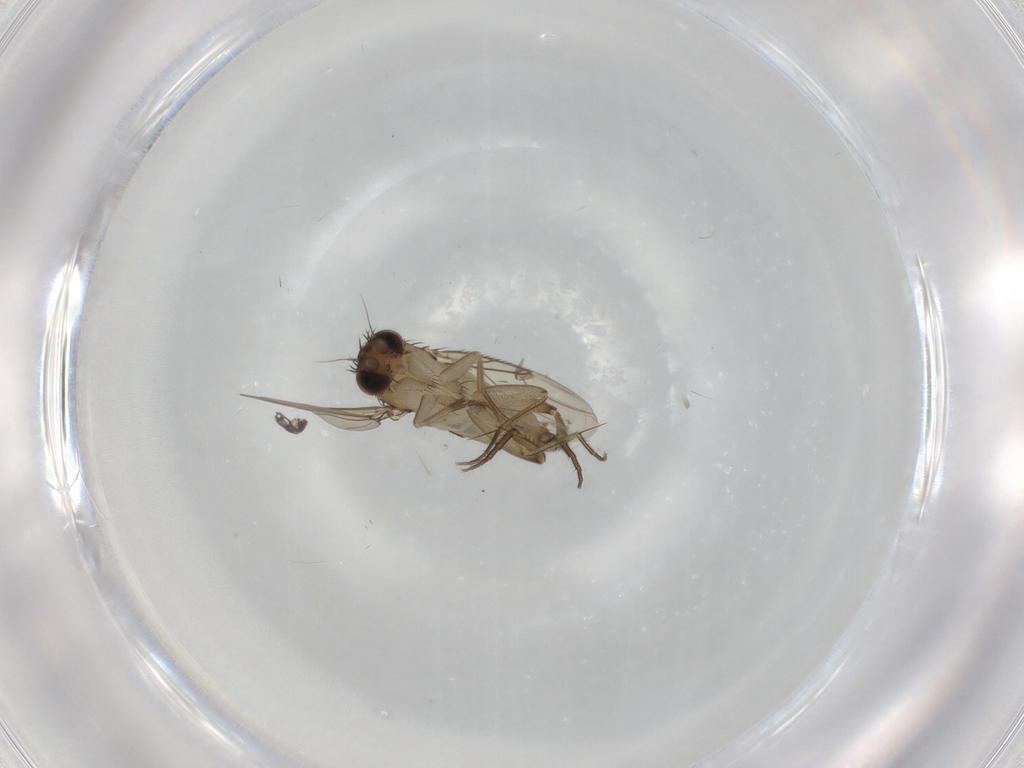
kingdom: Animalia
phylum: Arthropoda
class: Insecta
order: Diptera
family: Phoridae
